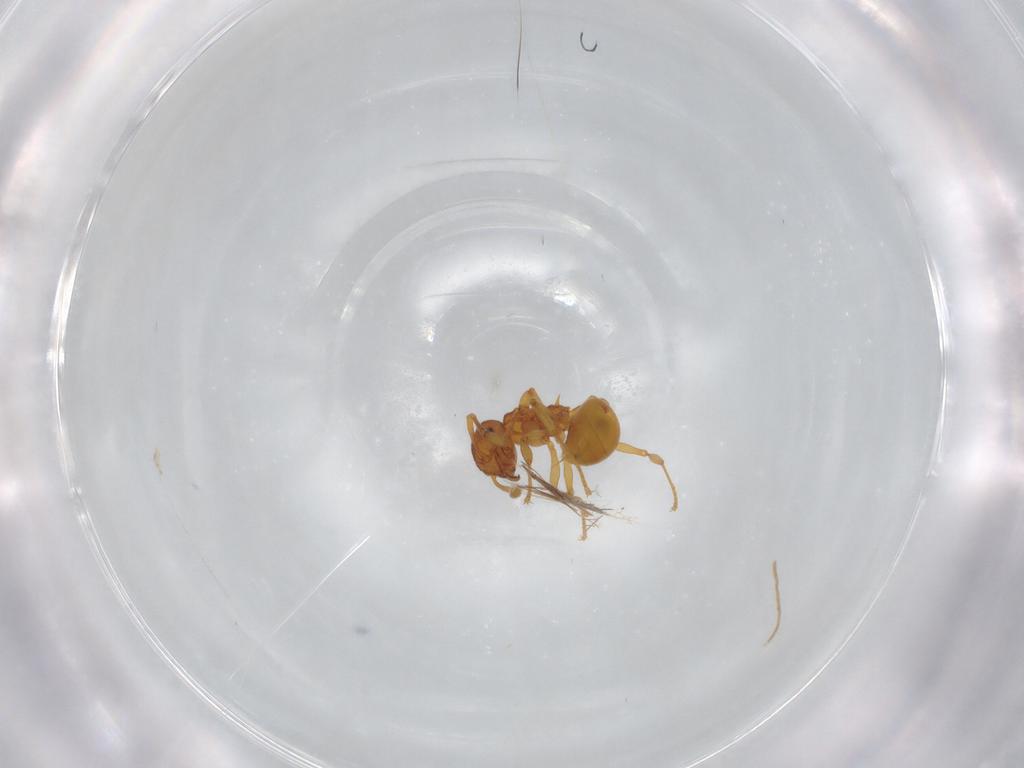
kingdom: Animalia
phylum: Arthropoda
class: Insecta
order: Hymenoptera
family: Formicidae
